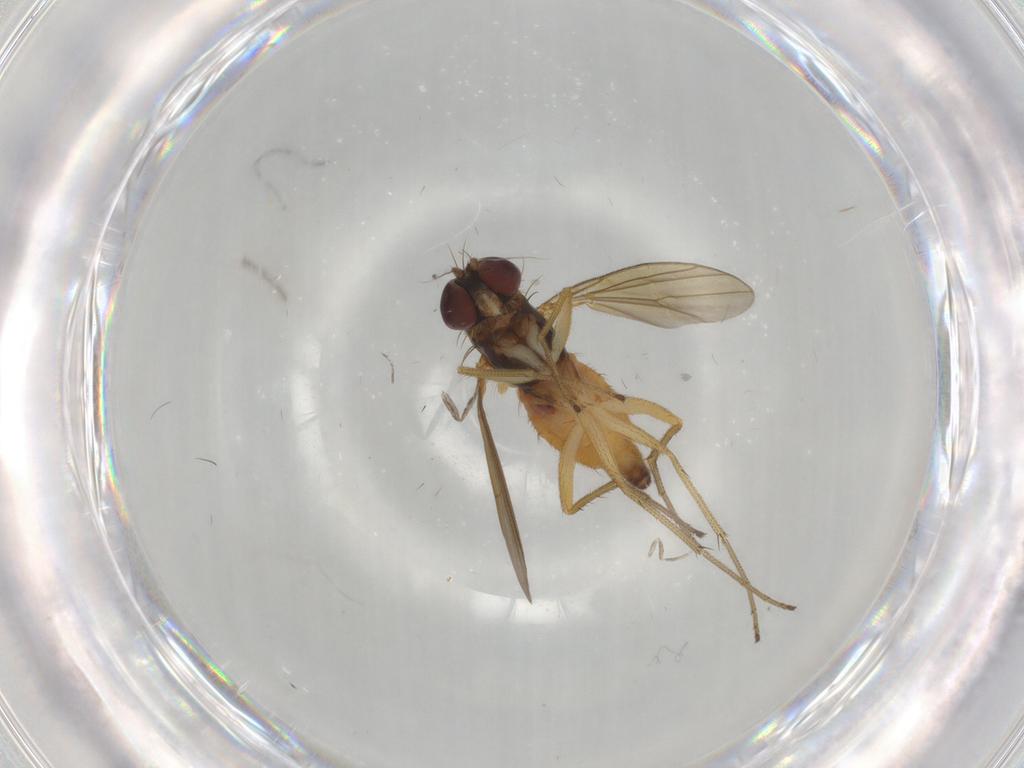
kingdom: Animalia
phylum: Arthropoda
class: Insecta
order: Diptera
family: Dolichopodidae
